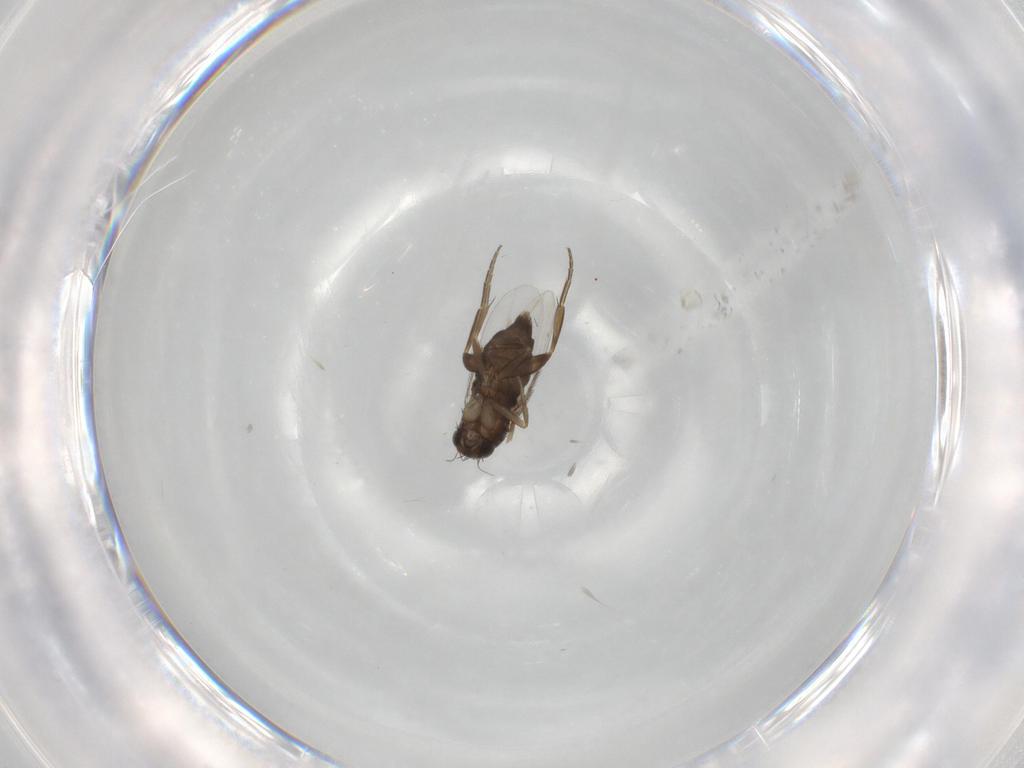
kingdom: Animalia
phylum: Arthropoda
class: Insecta
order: Diptera
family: Phoridae
